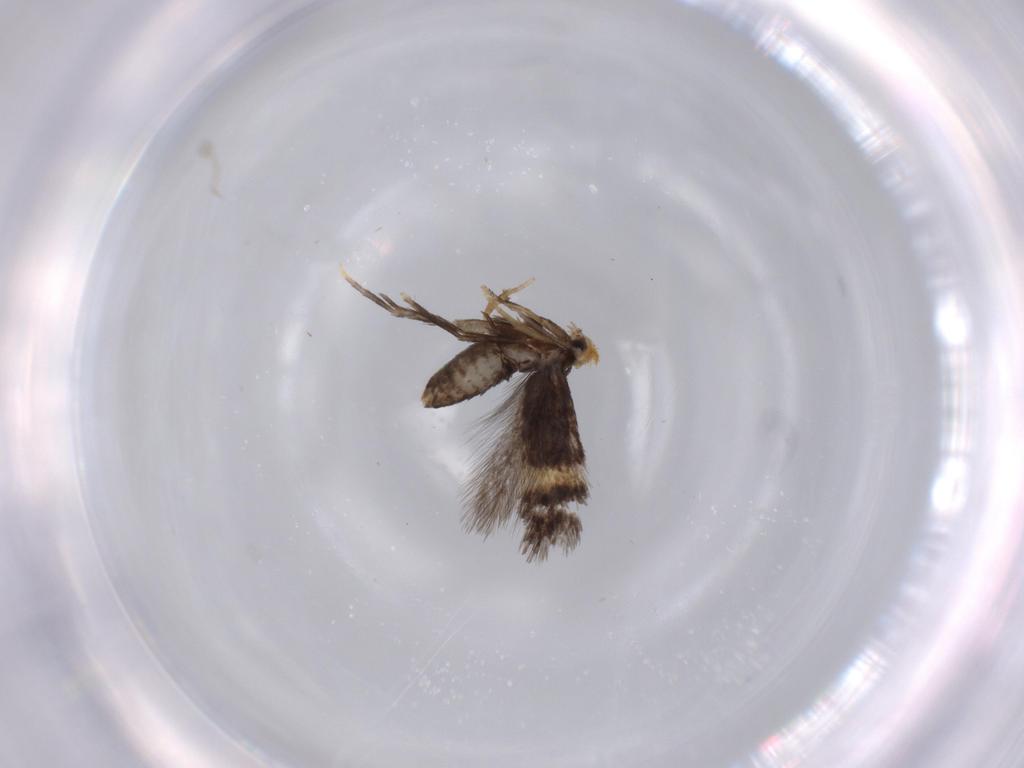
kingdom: Animalia
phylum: Arthropoda
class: Insecta
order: Lepidoptera
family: Nepticulidae
